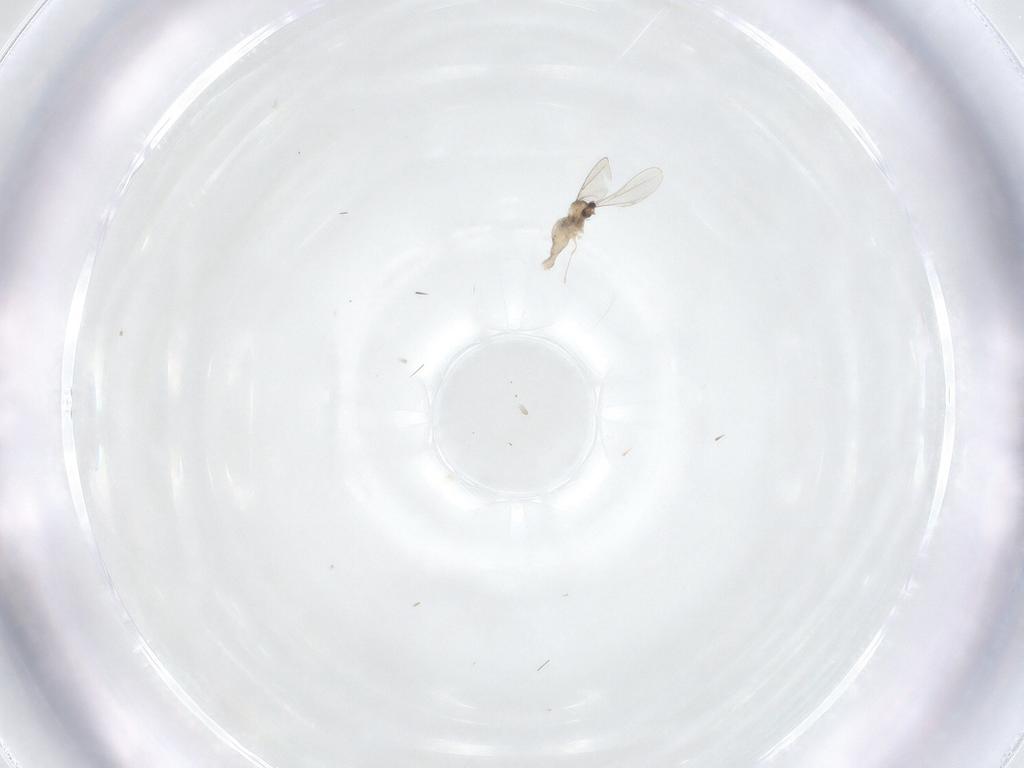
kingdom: Animalia
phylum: Arthropoda
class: Insecta
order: Diptera
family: Cecidomyiidae
